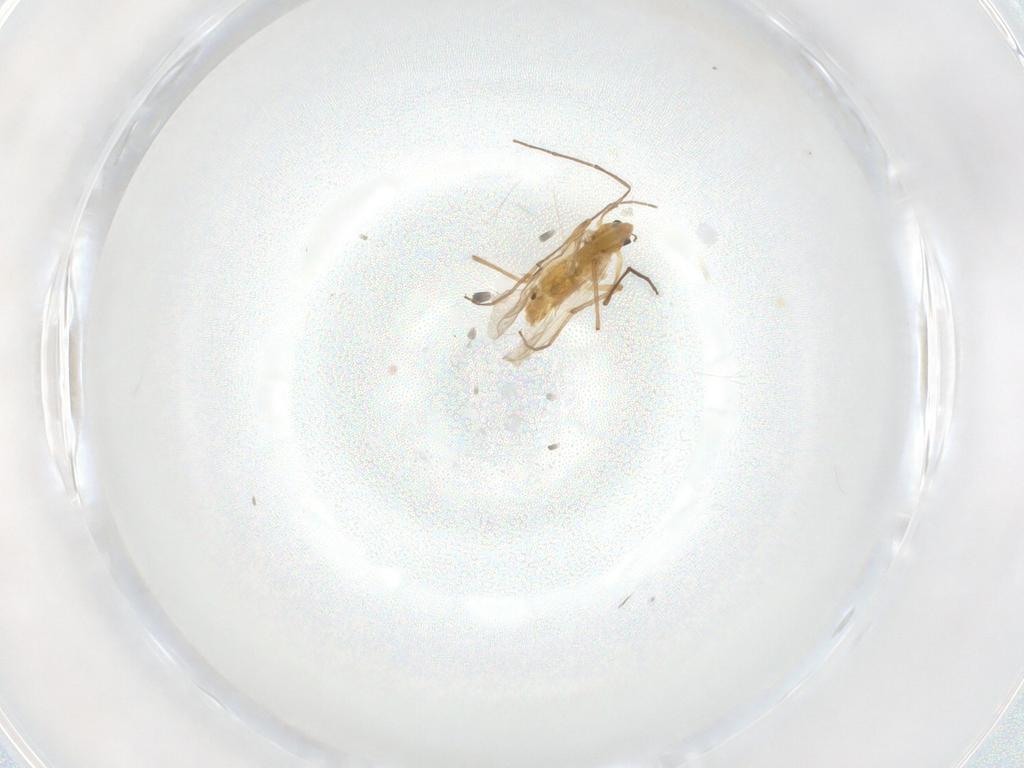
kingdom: Animalia
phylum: Arthropoda
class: Insecta
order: Diptera
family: Chironomidae
